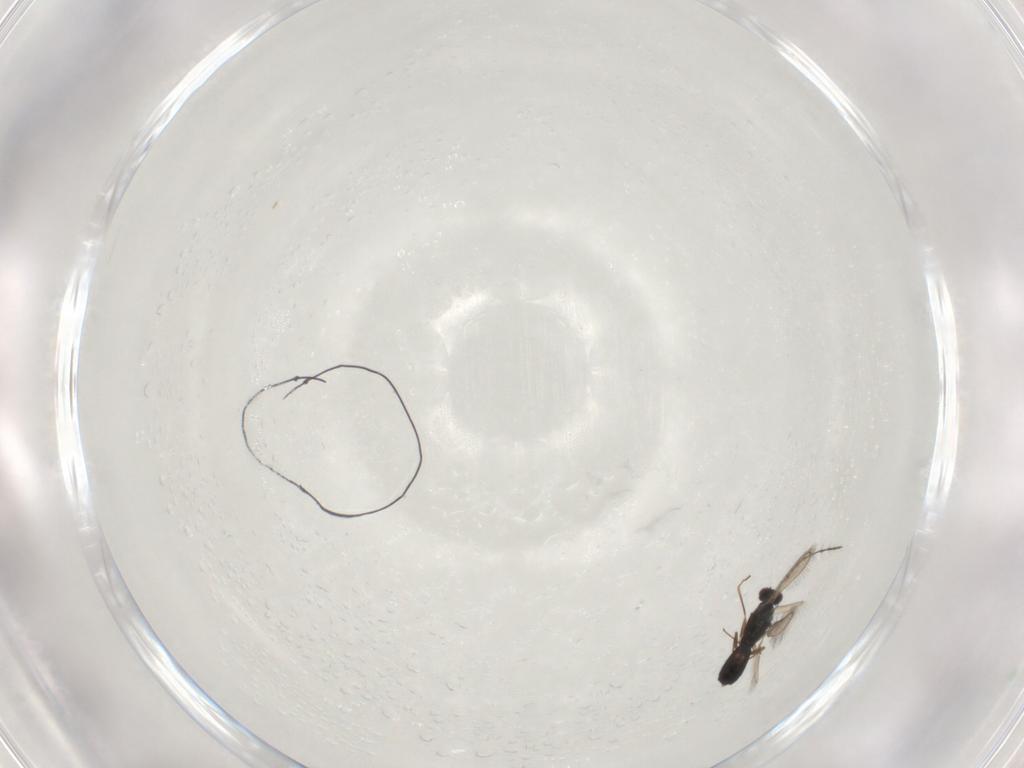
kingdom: Animalia
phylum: Arthropoda
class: Insecta
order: Hymenoptera
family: Pteromalidae
